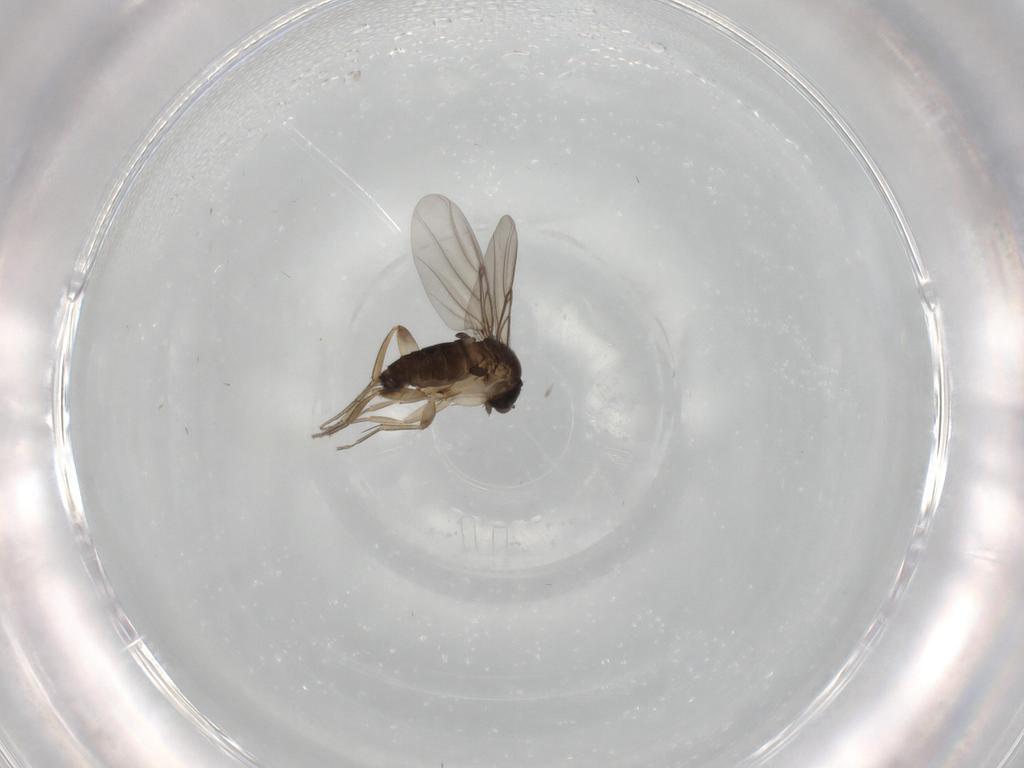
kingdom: Animalia
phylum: Arthropoda
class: Insecta
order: Diptera
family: Phoridae
